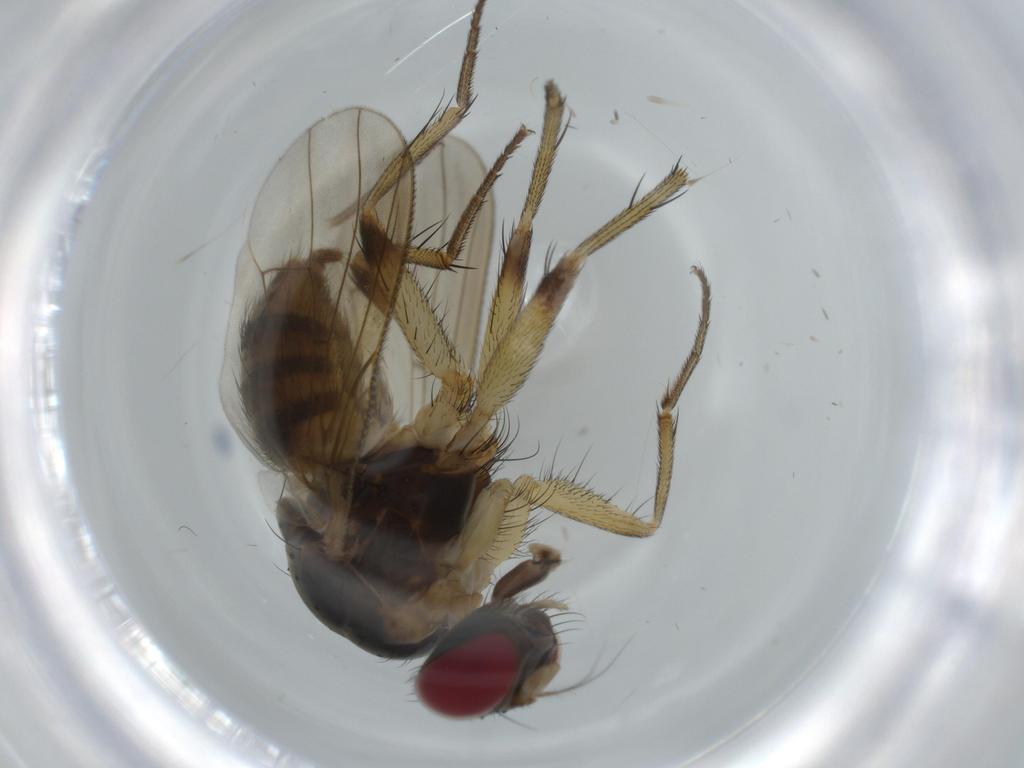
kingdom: Animalia
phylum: Arthropoda
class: Insecta
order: Diptera
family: Muscidae
